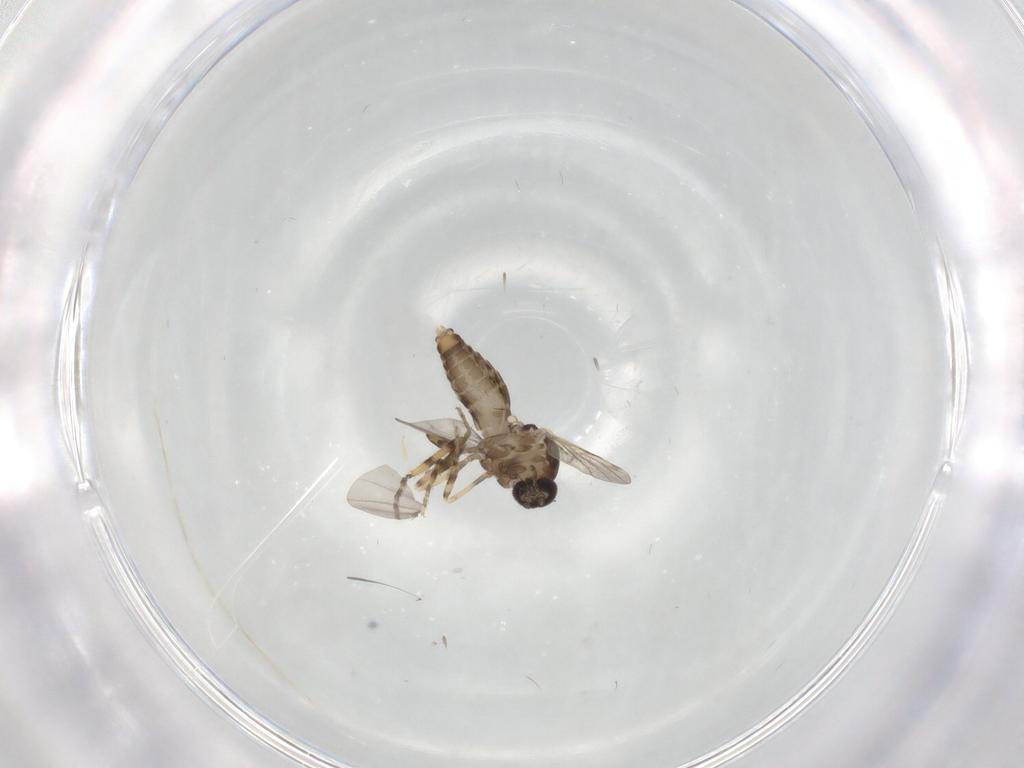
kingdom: Animalia
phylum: Arthropoda
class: Insecta
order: Diptera
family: Ceratopogonidae
